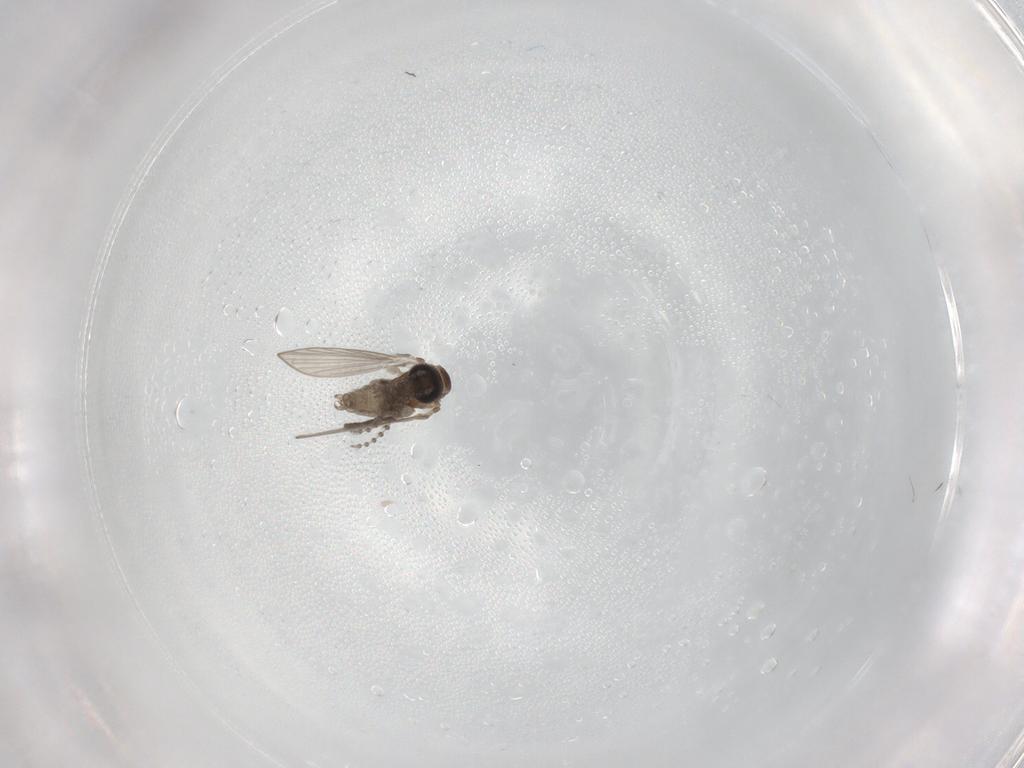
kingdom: Animalia
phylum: Arthropoda
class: Insecta
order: Diptera
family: Psychodidae
